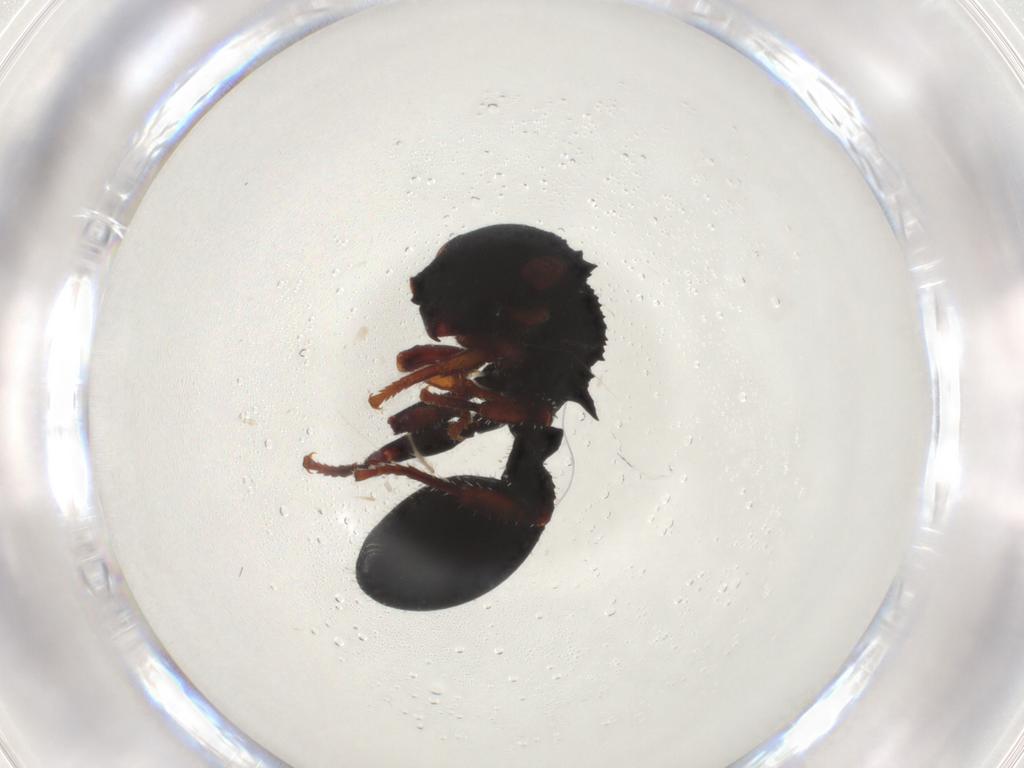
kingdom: Animalia
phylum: Arthropoda
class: Insecta
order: Hymenoptera
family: Formicidae
